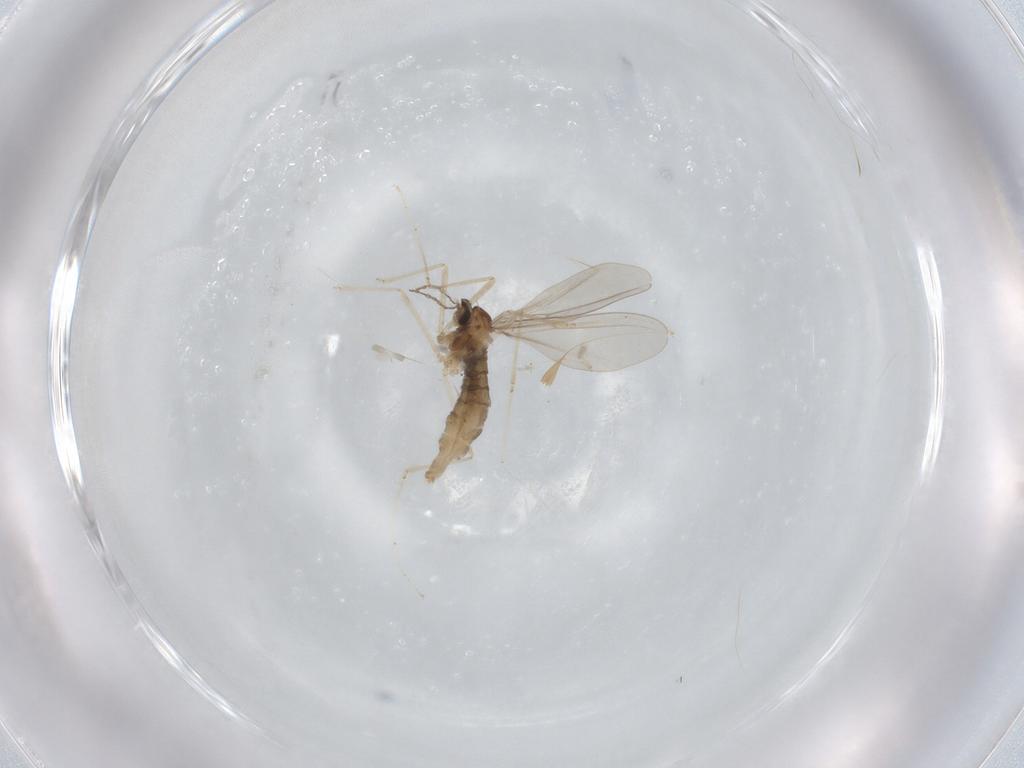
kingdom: Animalia
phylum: Arthropoda
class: Insecta
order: Diptera
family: Cecidomyiidae
